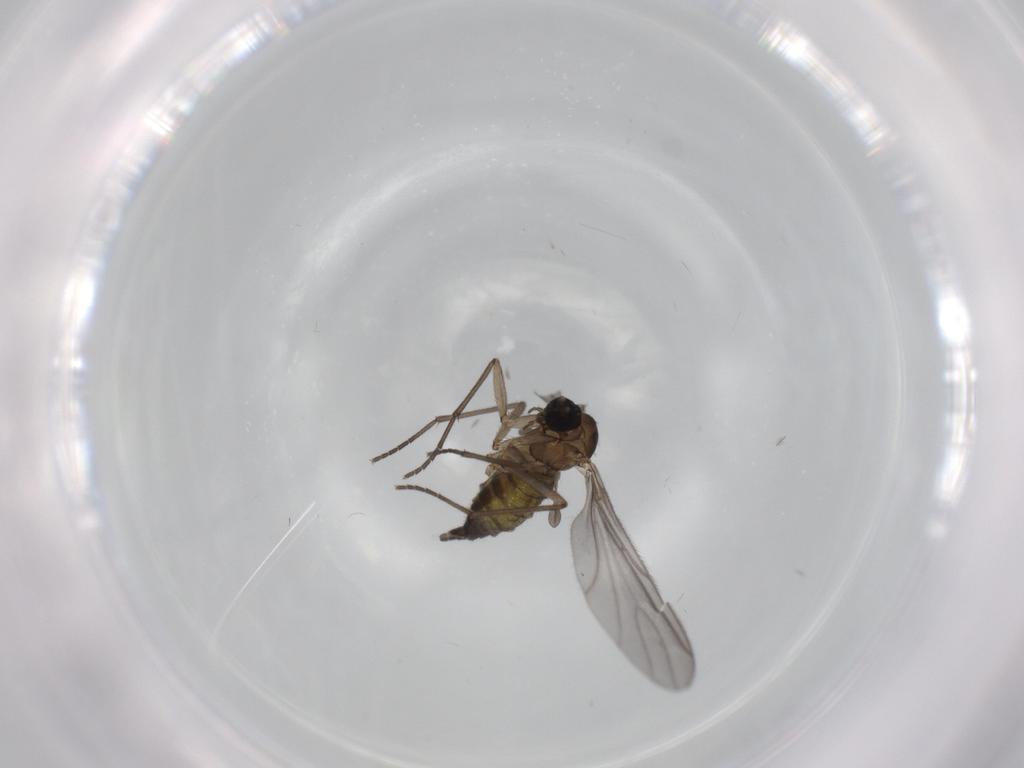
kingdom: Animalia
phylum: Arthropoda
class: Insecta
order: Diptera
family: Sciaridae
